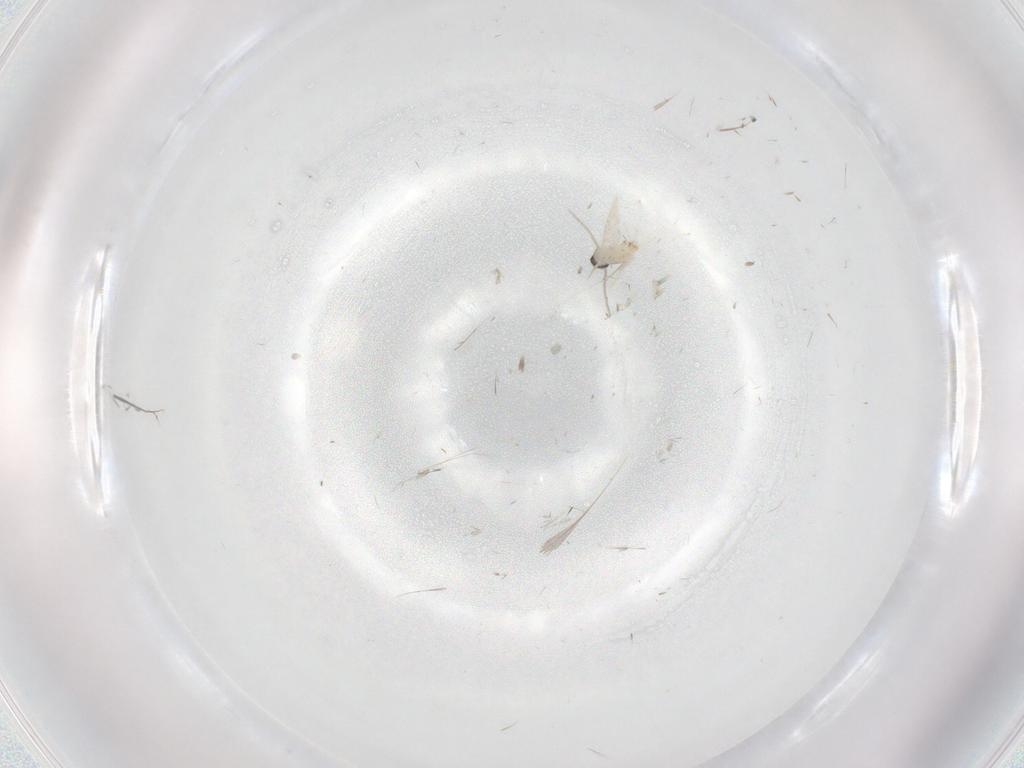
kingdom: Animalia
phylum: Arthropoda
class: Insecta
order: Diptera
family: Cecidomyiidae
